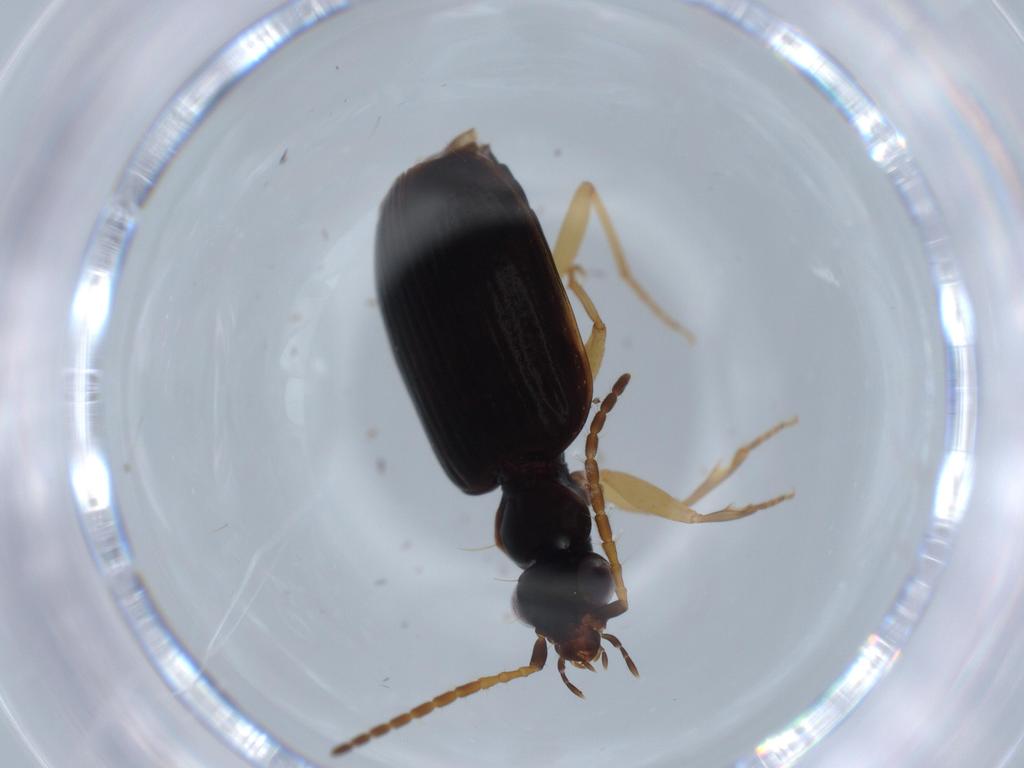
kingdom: Animalia
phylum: Arthropoda
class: Insecta
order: Coleoptera
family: Carabidae
